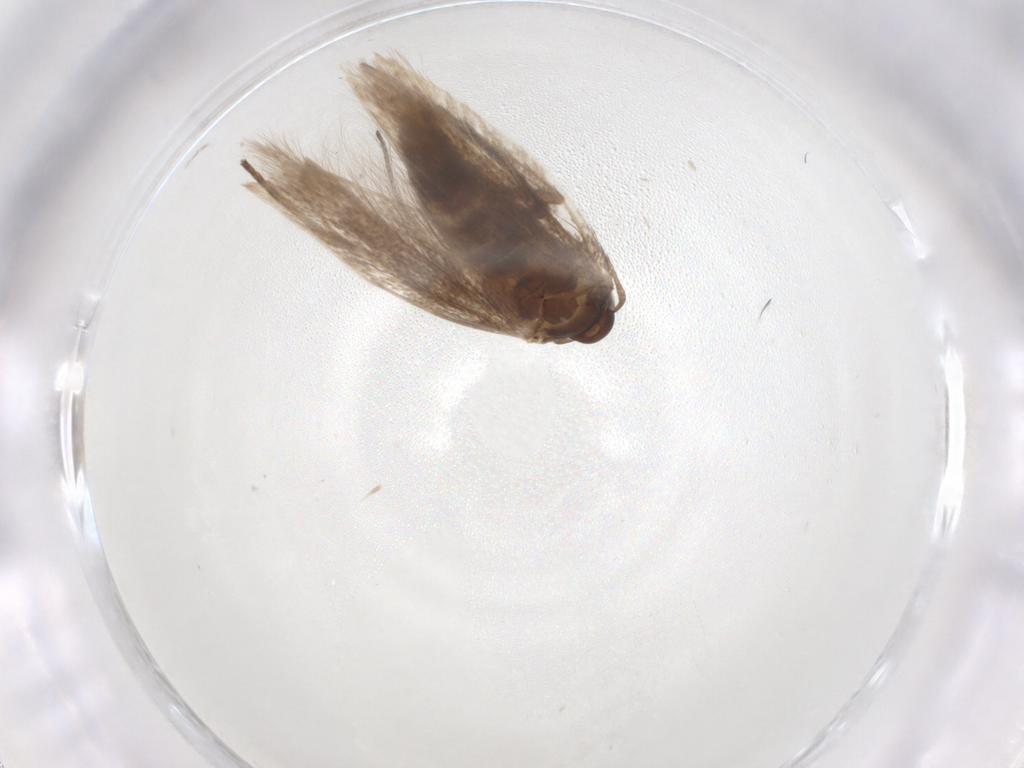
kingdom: Animalia
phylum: Arthropoda
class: Insecta
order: Lepidoptera
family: Gelechiidae
